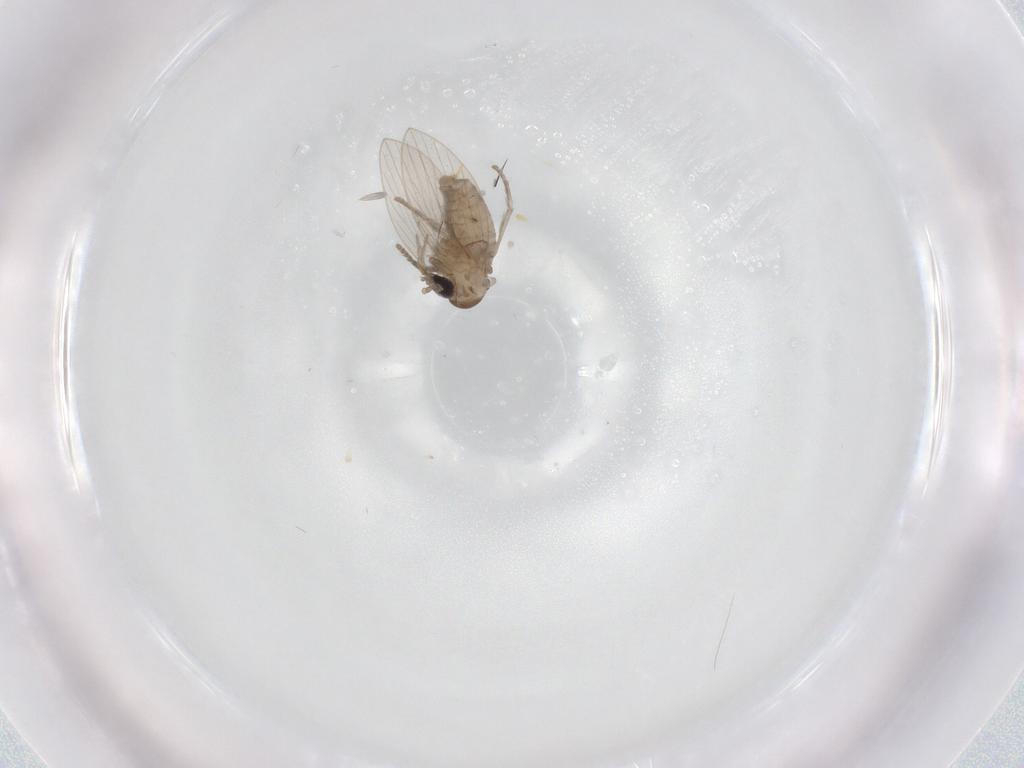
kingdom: Animalia
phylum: Arthropoda
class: Insecta
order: Diptera
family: Psychodidae
